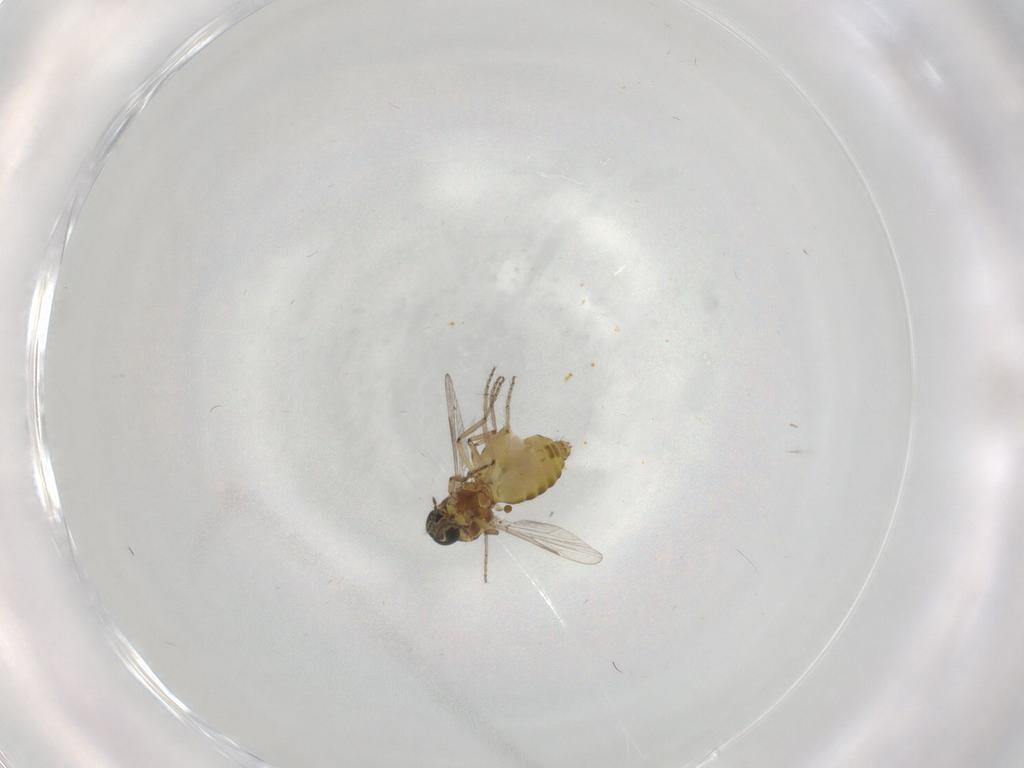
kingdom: Animalia
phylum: Arthropoda
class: Insecta
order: Diptera
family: Ceratopogonidae
